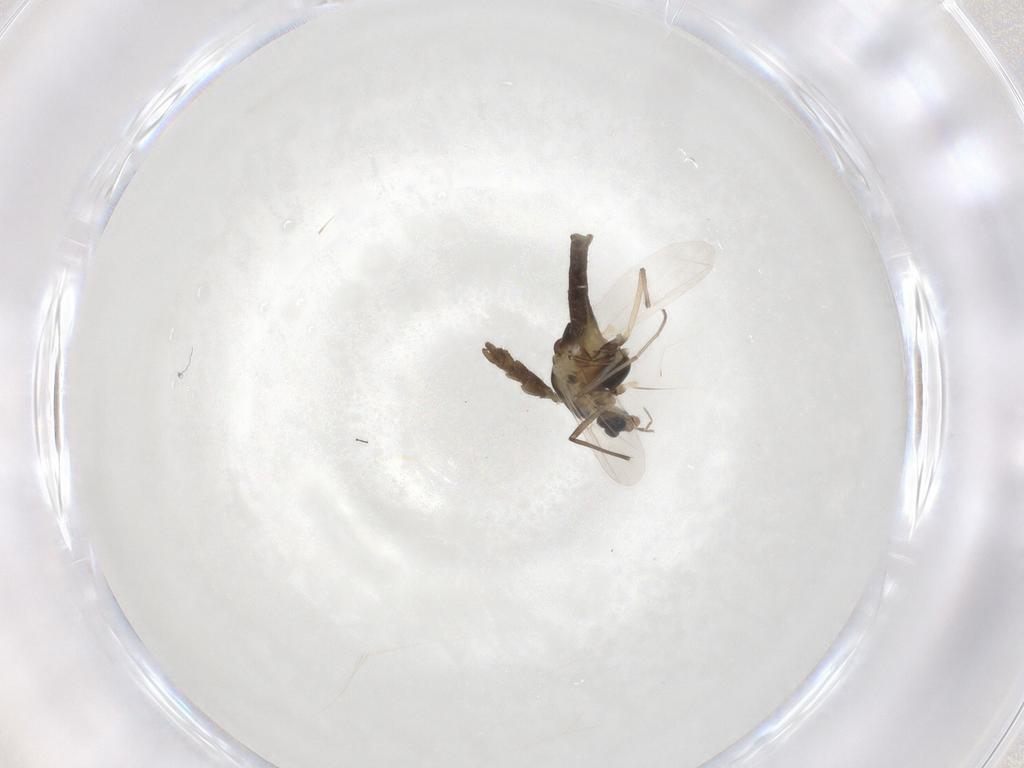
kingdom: Animalia
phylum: Arthropoda
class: Insecta
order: Diptera
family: Chironomidae
